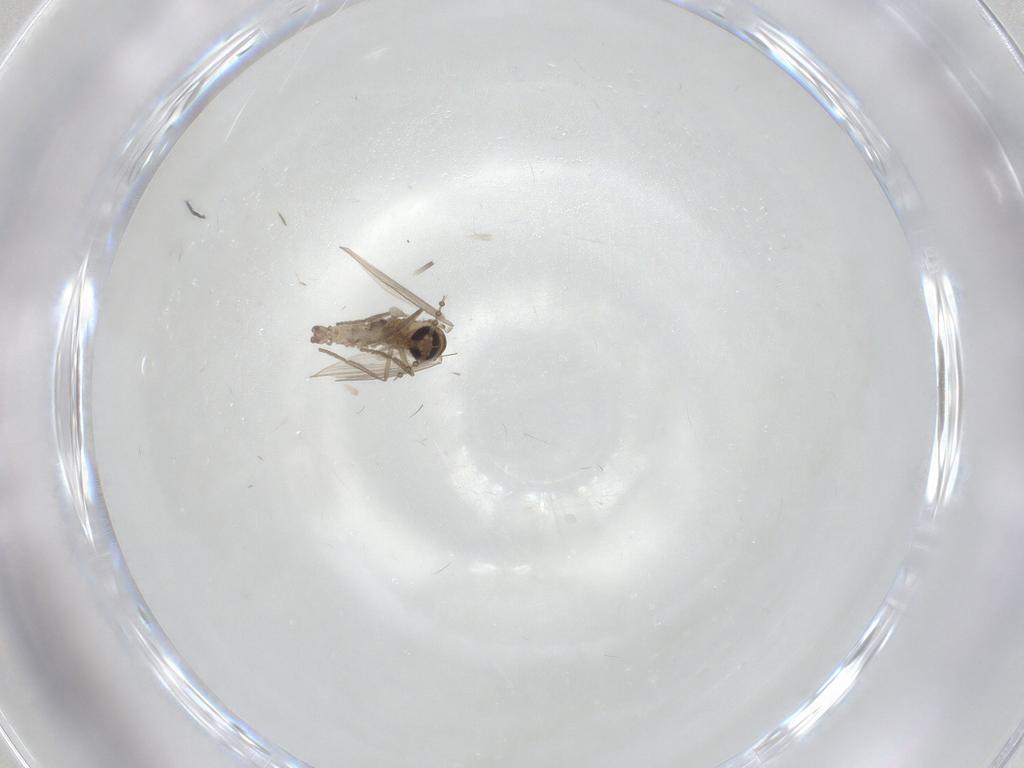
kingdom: Animalia
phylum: Arthropoda
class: Insecta
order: Diptera
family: Psychodidae
